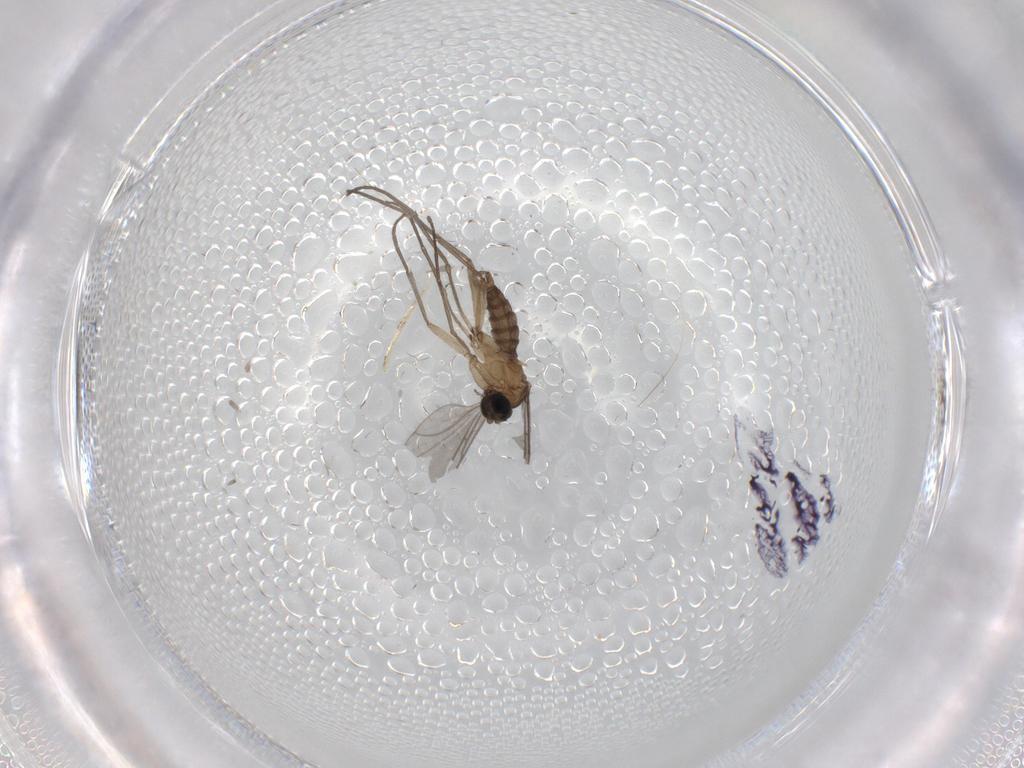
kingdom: Animalia
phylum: Arthropoda
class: Insecta
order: Diptera
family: Sciaridae
